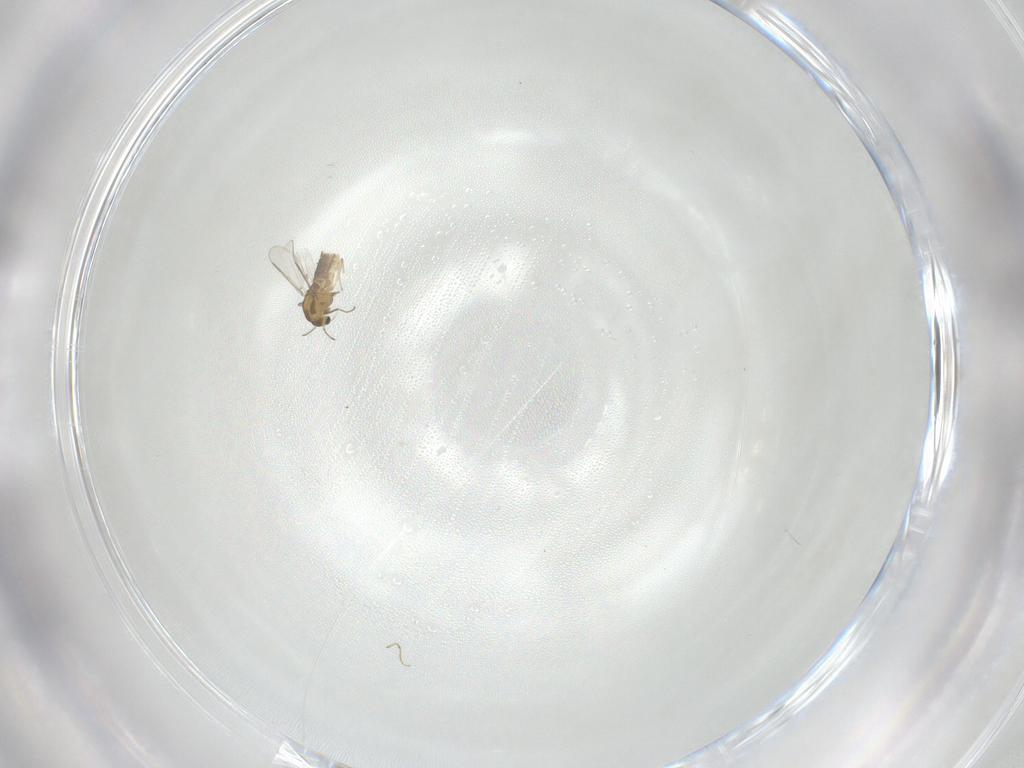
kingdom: Animalia
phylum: Arthropoda
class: Insecta
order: Diptera
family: Chironomidae
